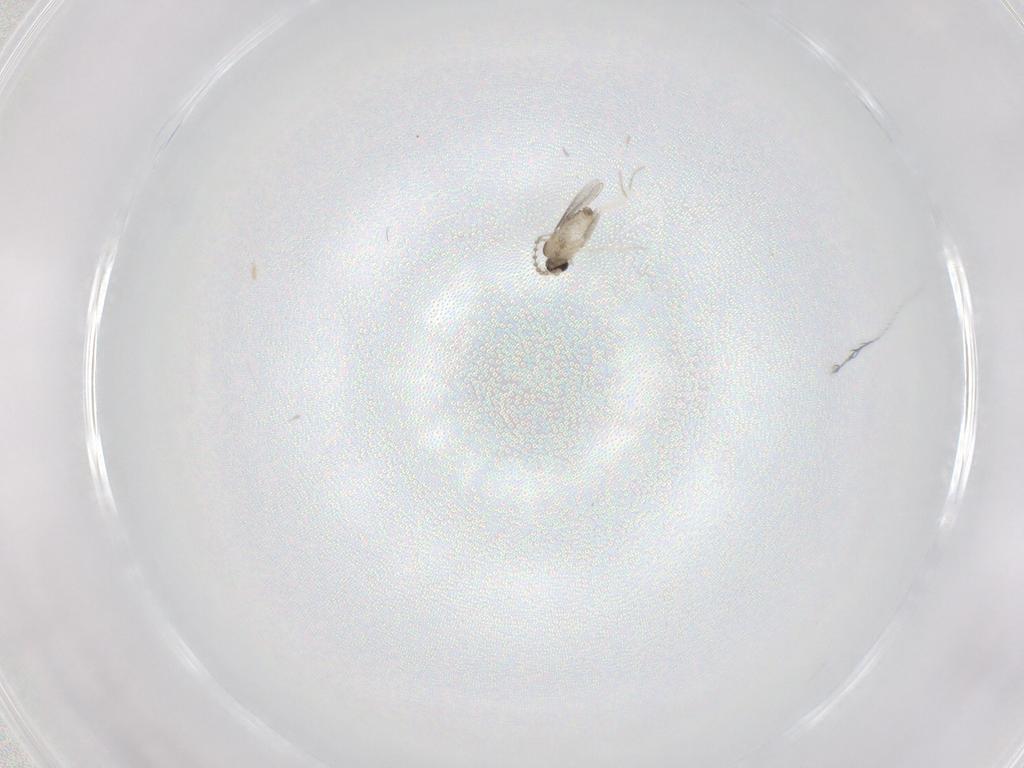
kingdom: Animalia
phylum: Arthropoda
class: Insecta
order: Diptera
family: Cecidomyiidae
